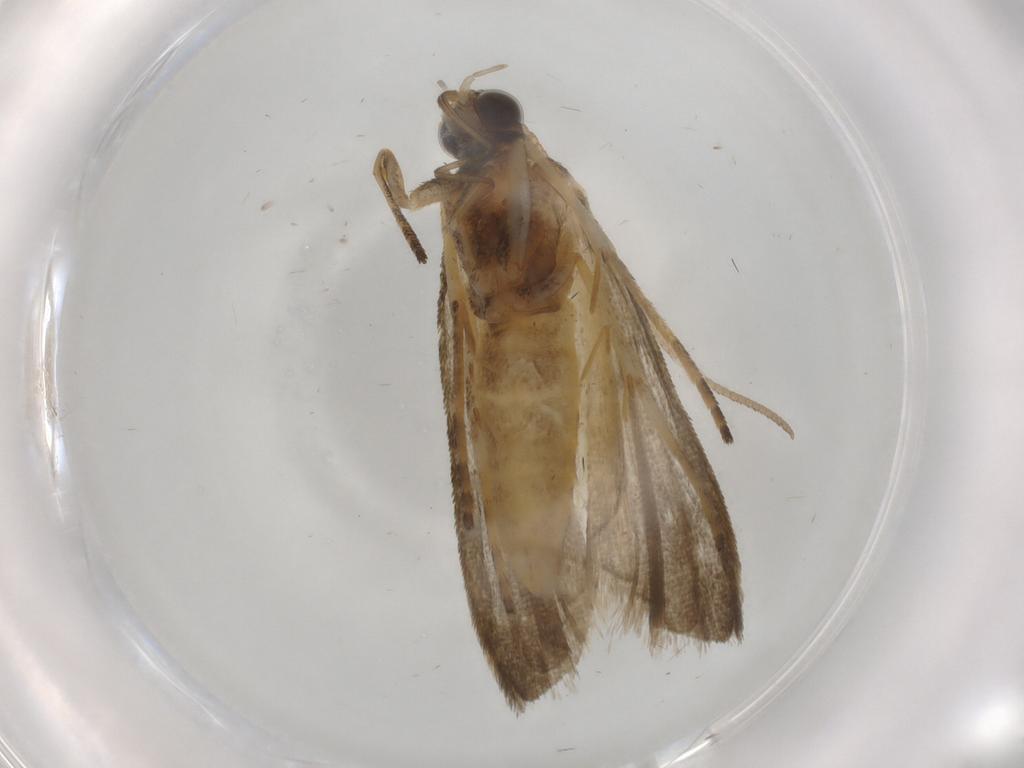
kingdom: Animalia
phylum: Arthropoda
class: Insecta
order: Lepidoptera
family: Noctuidae
